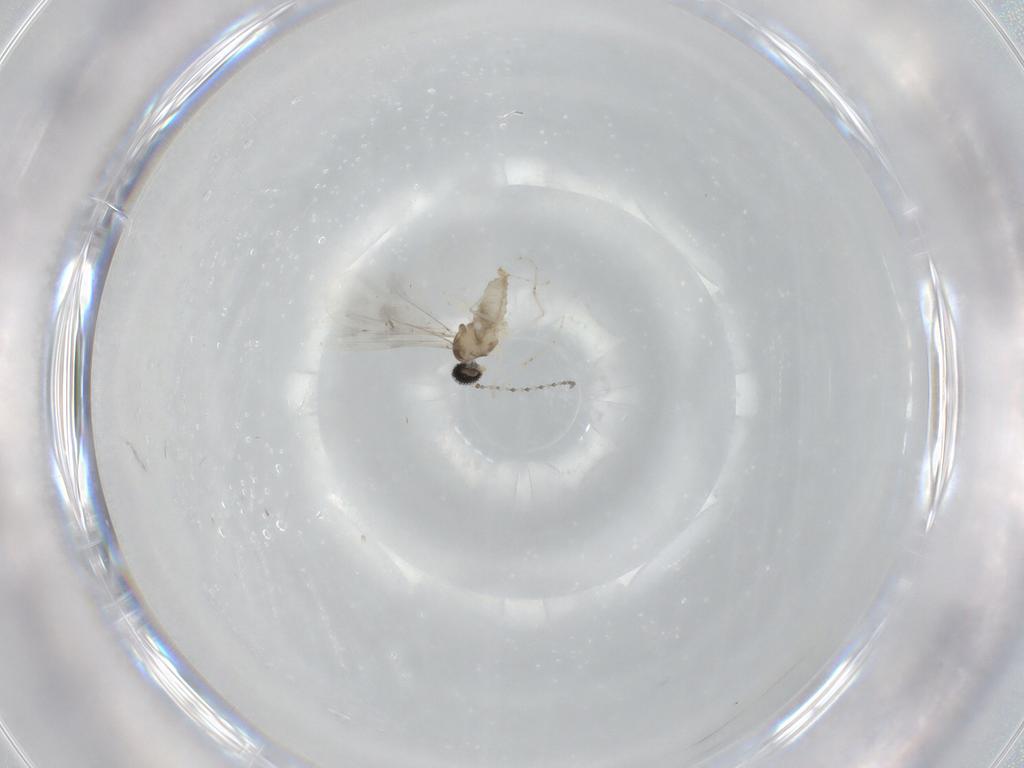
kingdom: Animalia
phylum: Arthropoda
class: Insecta
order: Diptera
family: Cecidomyiidae
